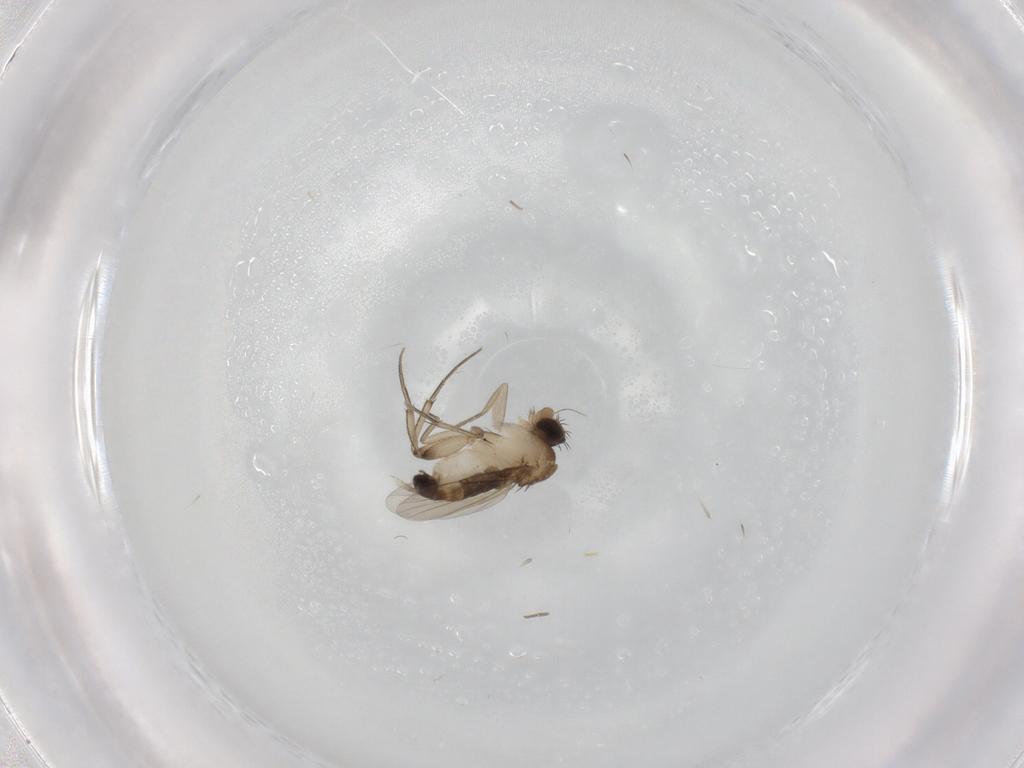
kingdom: Animalia
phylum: Arthropoda
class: Insecta
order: Diptera
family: Phoridae
